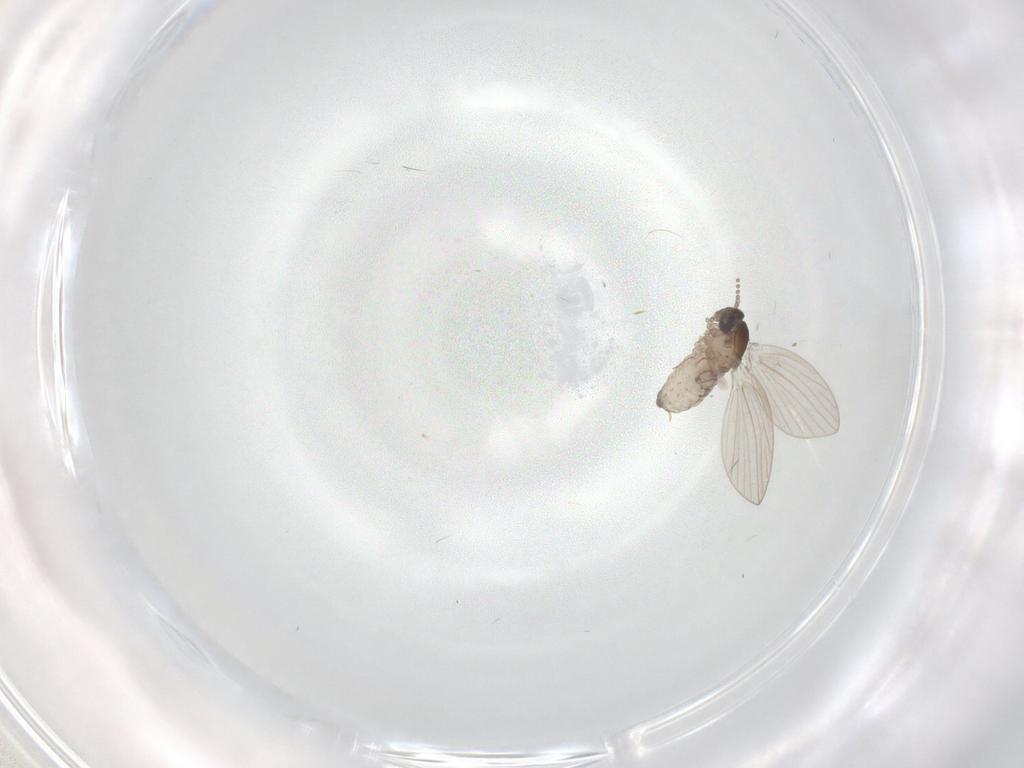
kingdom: Animalia
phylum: Arthropoda
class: Insecta
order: Diptera
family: Psychodidae
